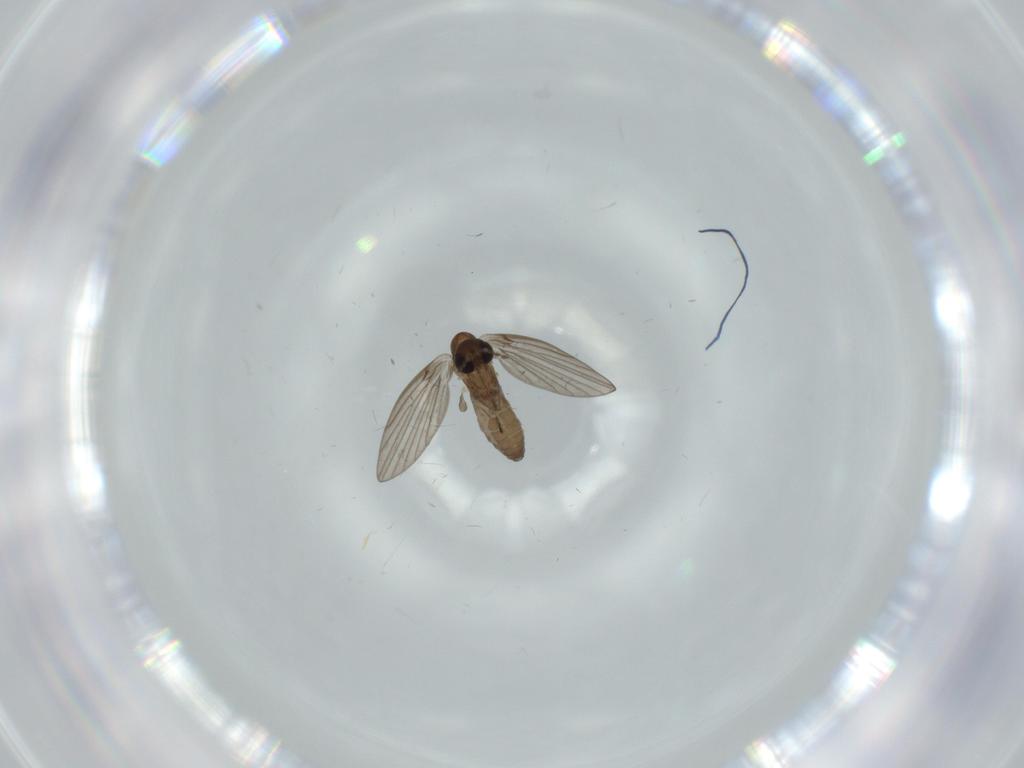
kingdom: Animalia
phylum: Arthropoda
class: Insecta
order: Diptera
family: Psychodidae
